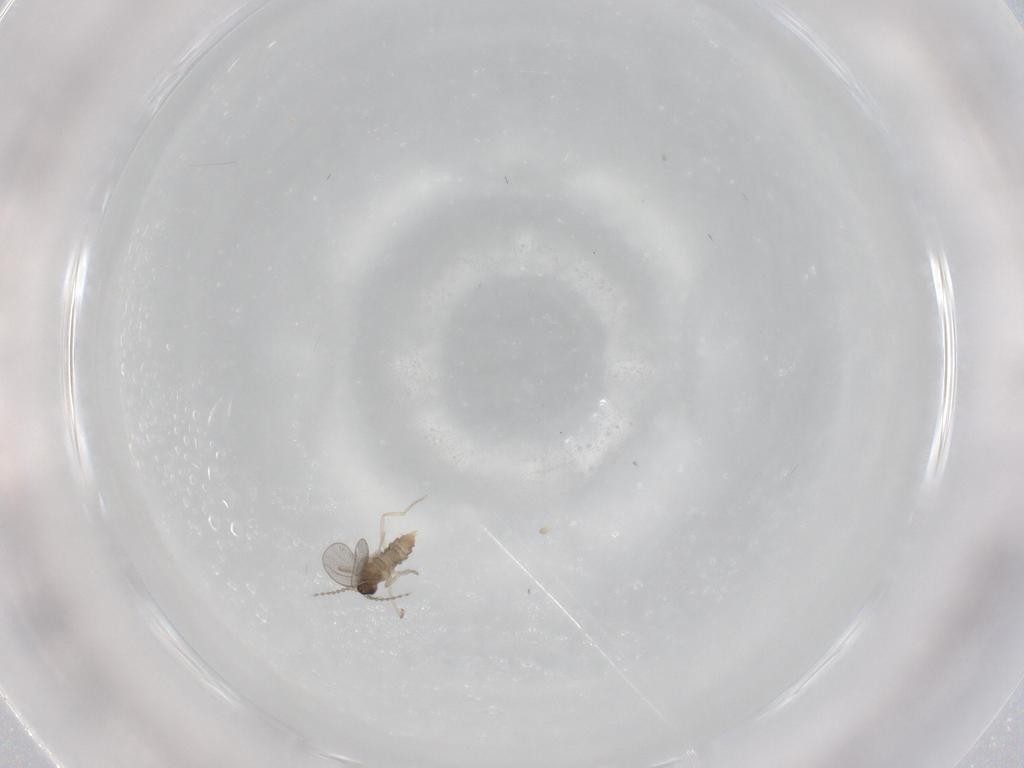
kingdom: Animalia
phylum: Arthropoda
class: Insecta
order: Diptera
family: Cecidomyiidae
